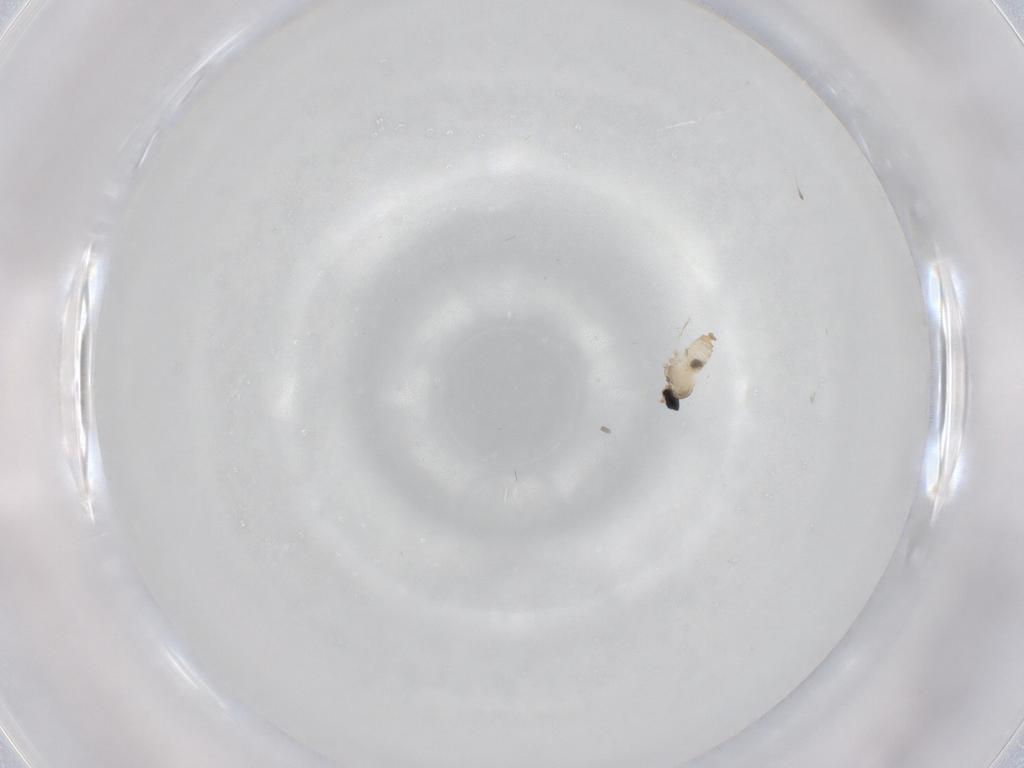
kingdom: Animalia
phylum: Arthropoda
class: Insecta
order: Diptera
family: Cecidomyiidae
